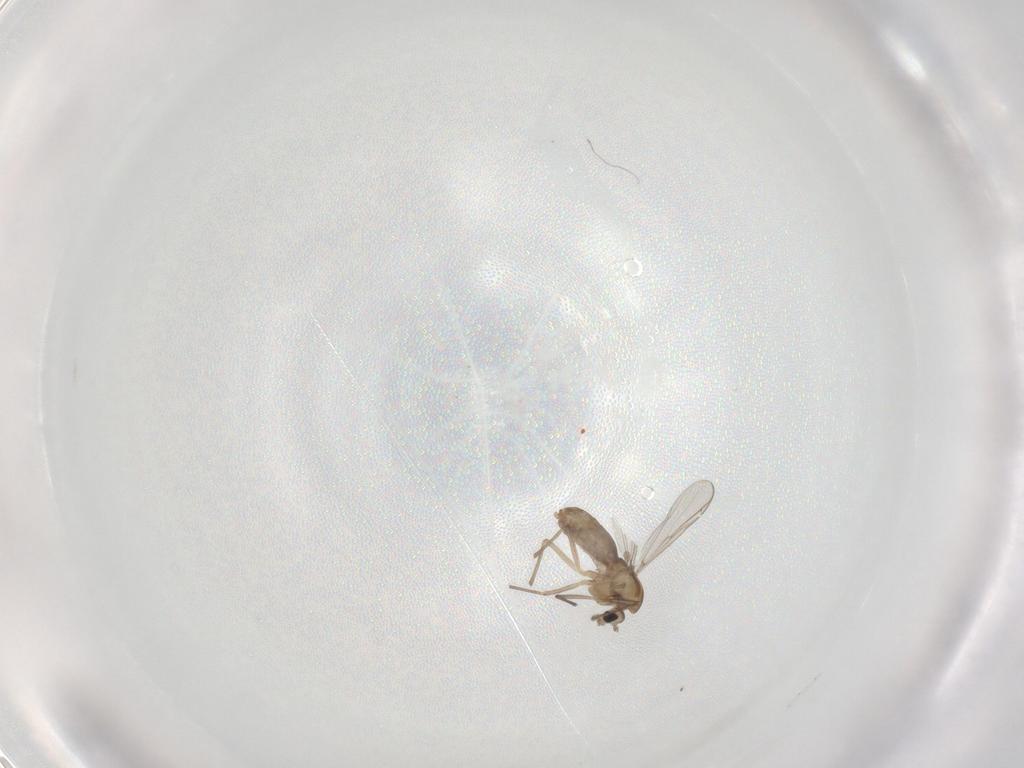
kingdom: Animalia
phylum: Arthropoda
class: Insecta
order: Diptera
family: Chironomidae
